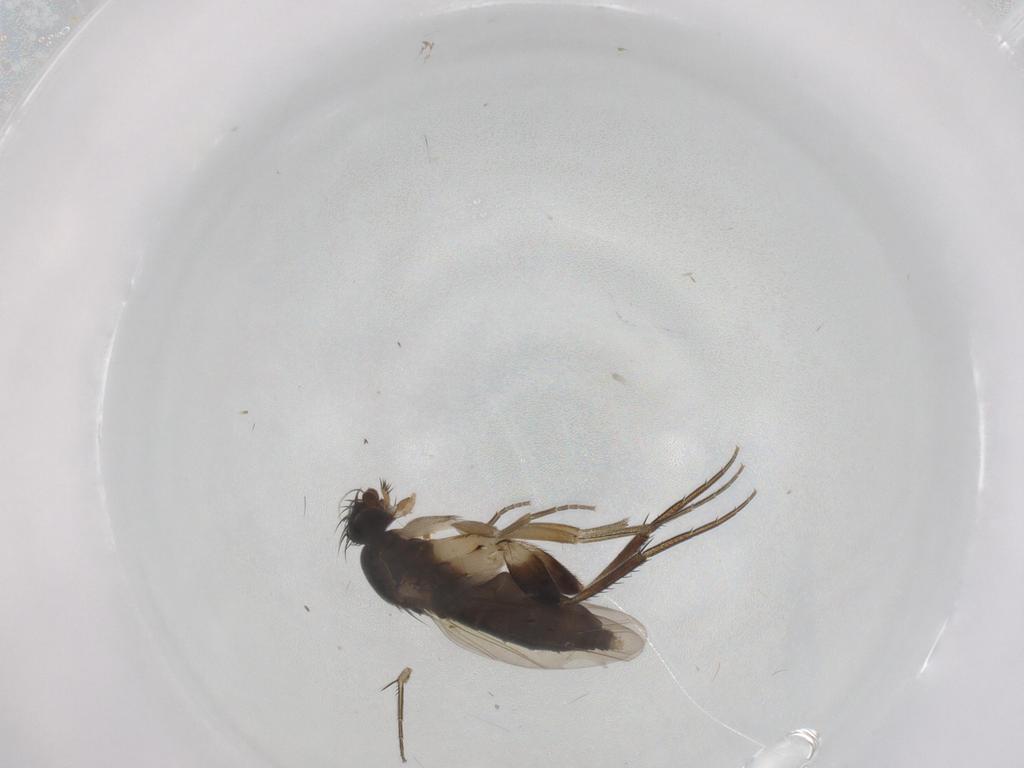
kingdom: Animalia
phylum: Arthropoda
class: Insecta
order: Diptera
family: Phoridae
